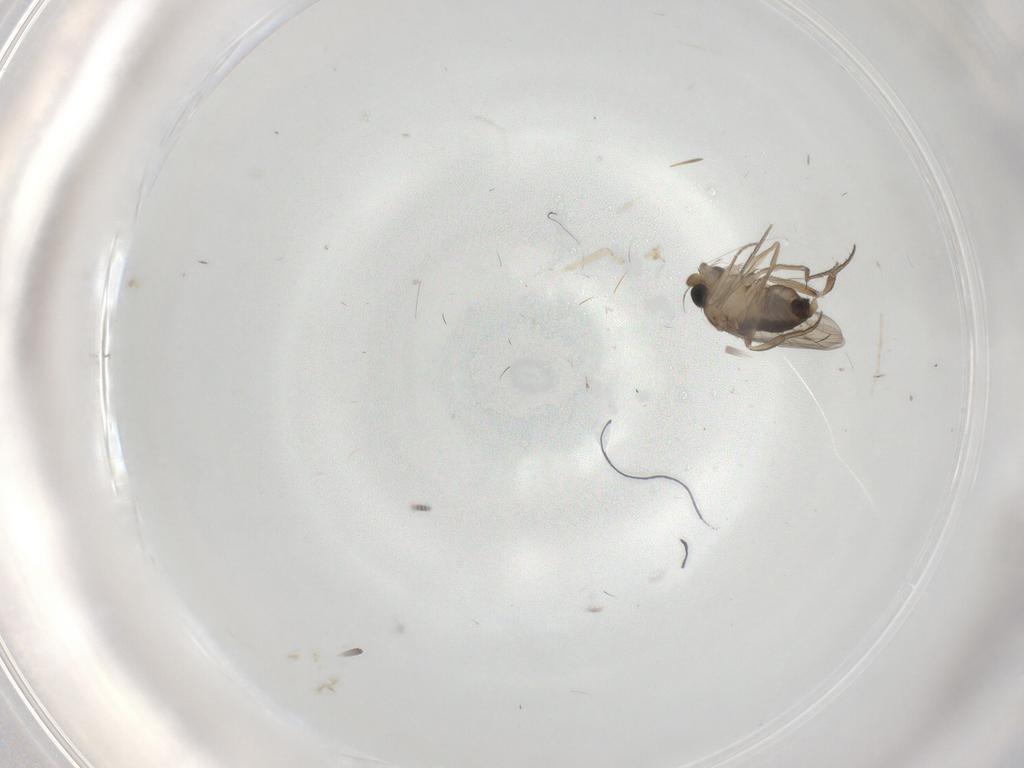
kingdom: Animalia
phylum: Arthropoda
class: Insecta
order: Diptera
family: Phoridae
